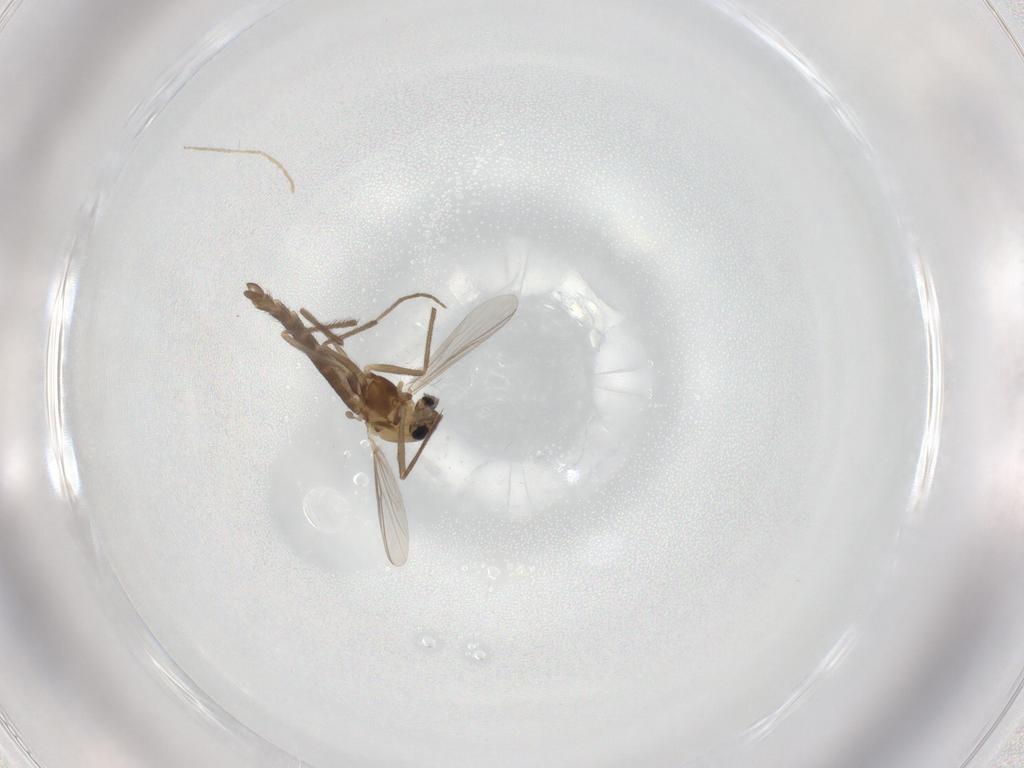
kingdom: Animalia
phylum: Arthropoda
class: Insecta
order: Diptera
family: Chironomidae
